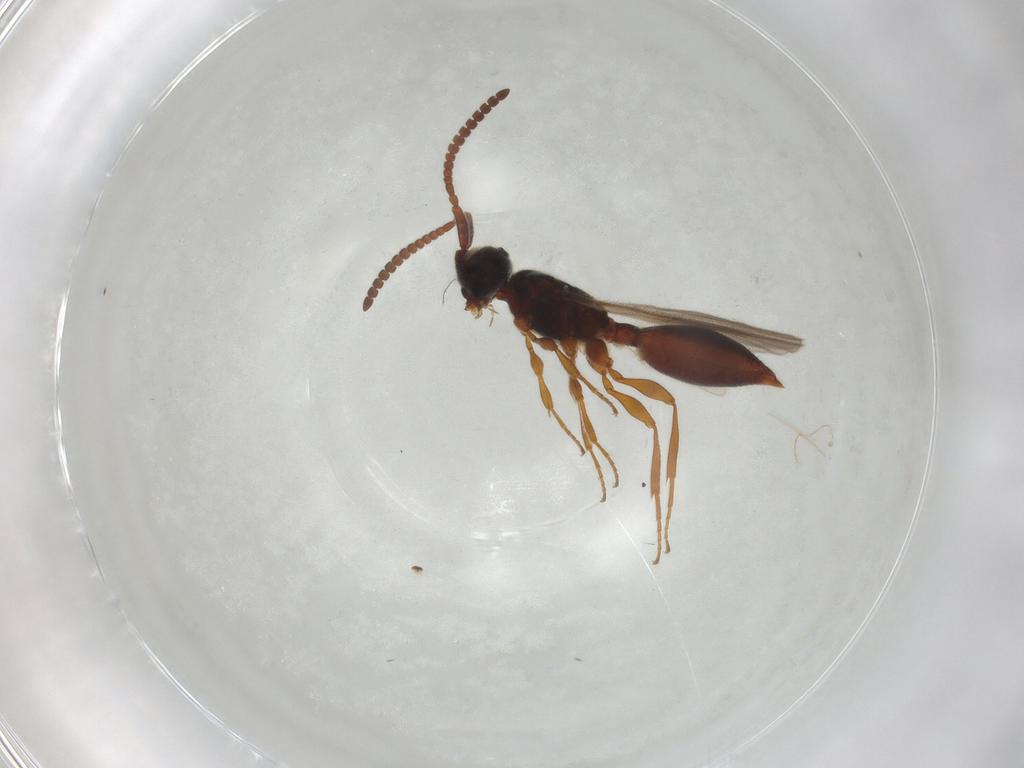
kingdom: Animalia
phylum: Arthropoda
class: Insecta
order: Hymenoptera
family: Diapriidae
